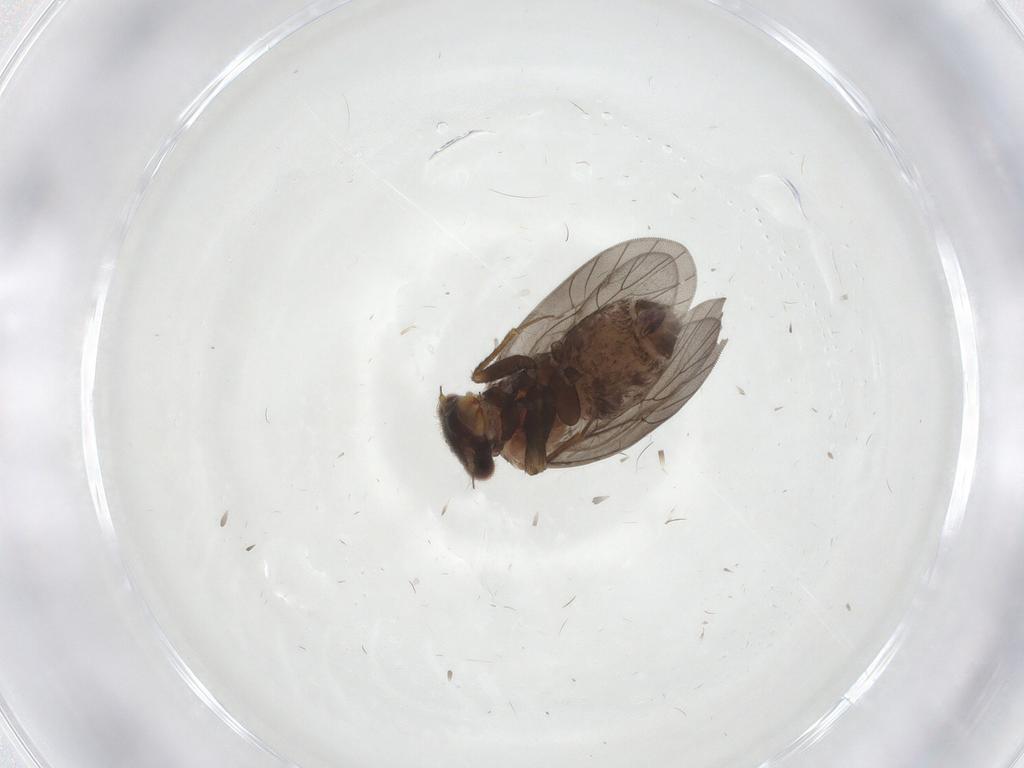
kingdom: Animalia
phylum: Arthropoda
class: Insecta
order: Psocodea
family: Lepidopsocidae
